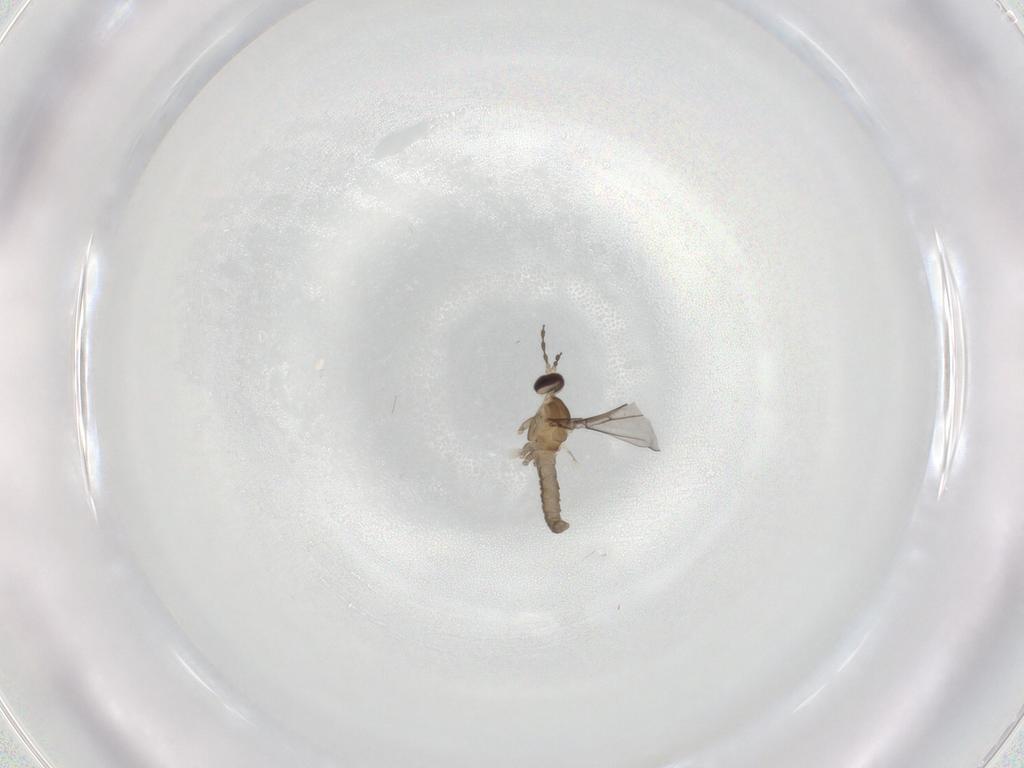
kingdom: Animalia
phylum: Arthropoda
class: Insecta
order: Diptera
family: Cecidomyiidae
